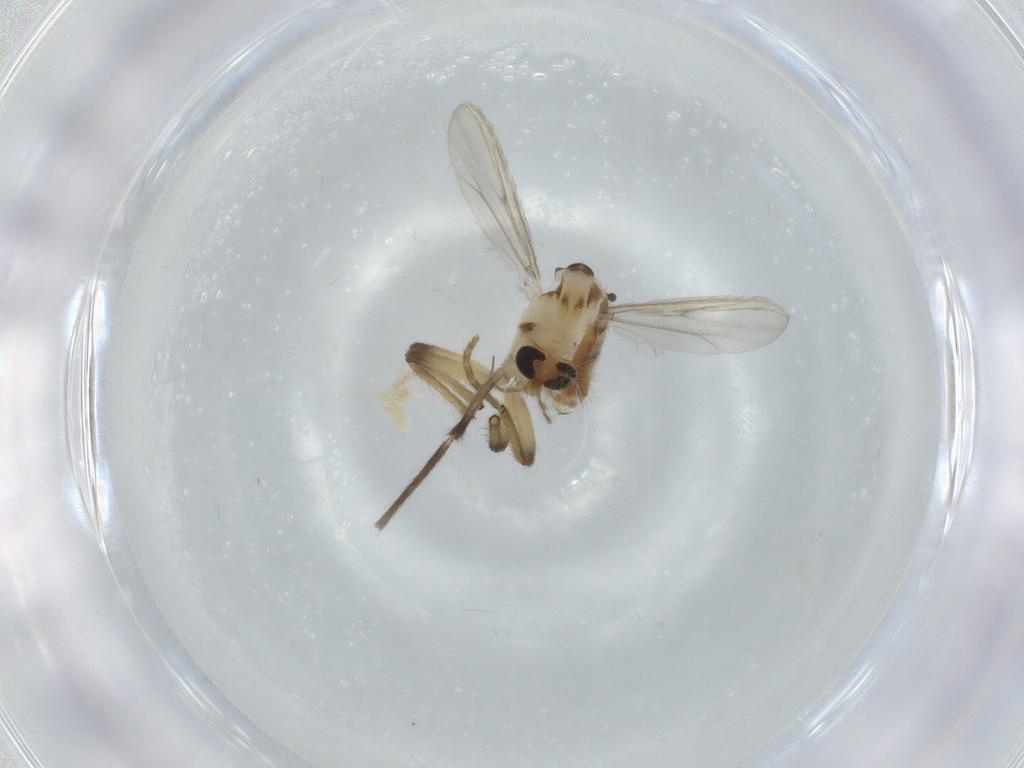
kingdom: Animalia
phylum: Arthropoda
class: Insecta
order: Diptera
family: Chironomidae
